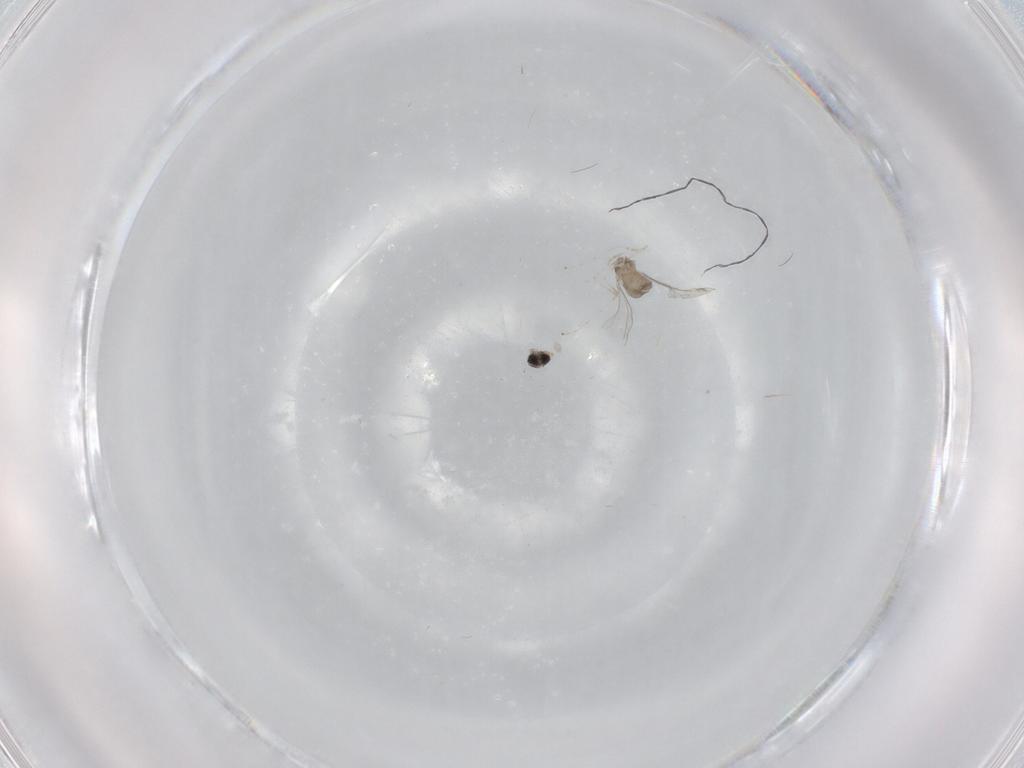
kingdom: Animalia
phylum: Arthropoda
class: Insecta
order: Diptera
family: Cecidomyiidae
